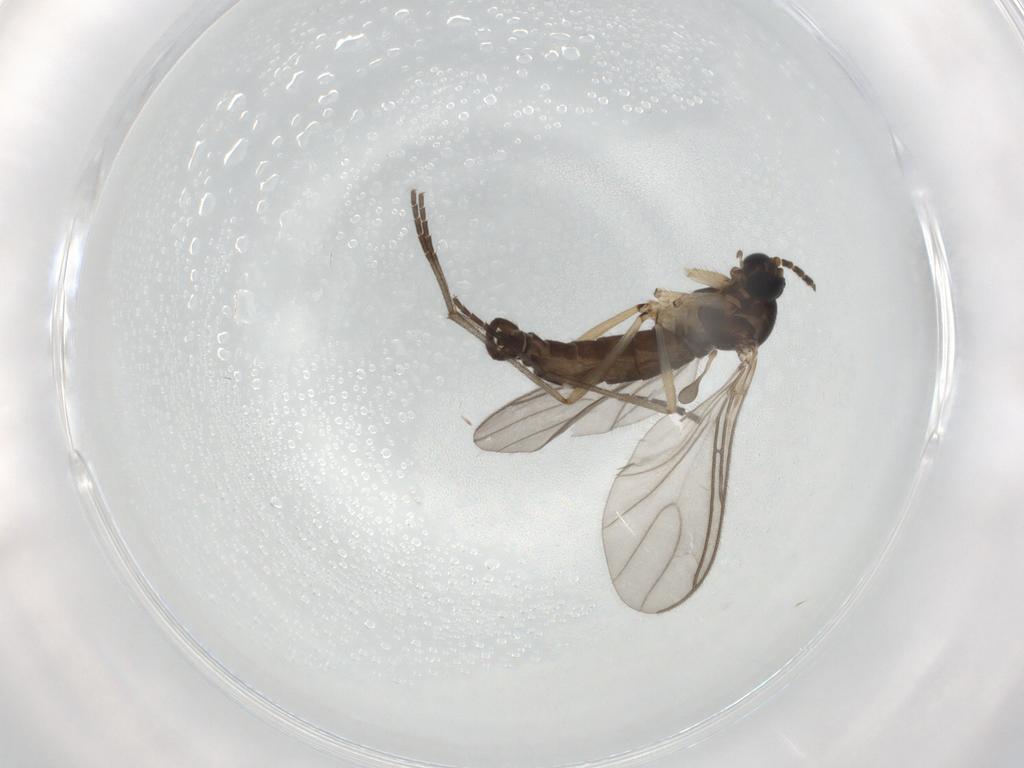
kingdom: Animalia
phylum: Arthropoda
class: Insecta
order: Diptera
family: Sciaridae
